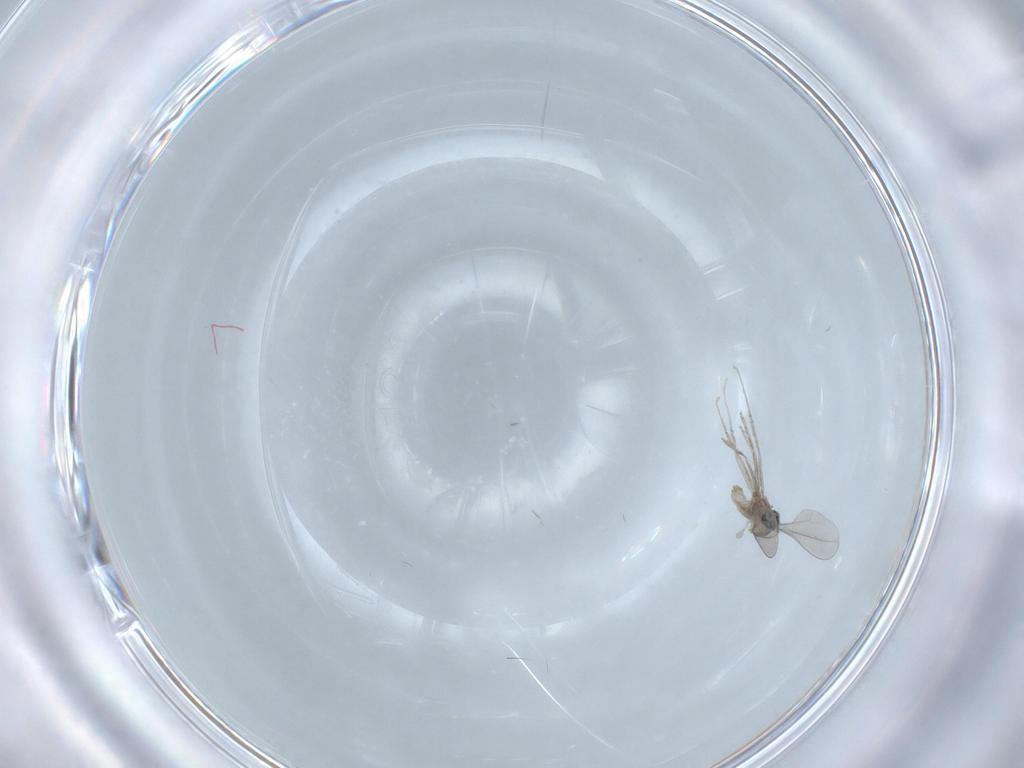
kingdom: Animalia
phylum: Arthropoda
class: Insecta
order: Diptera
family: Cecidomyiidae
